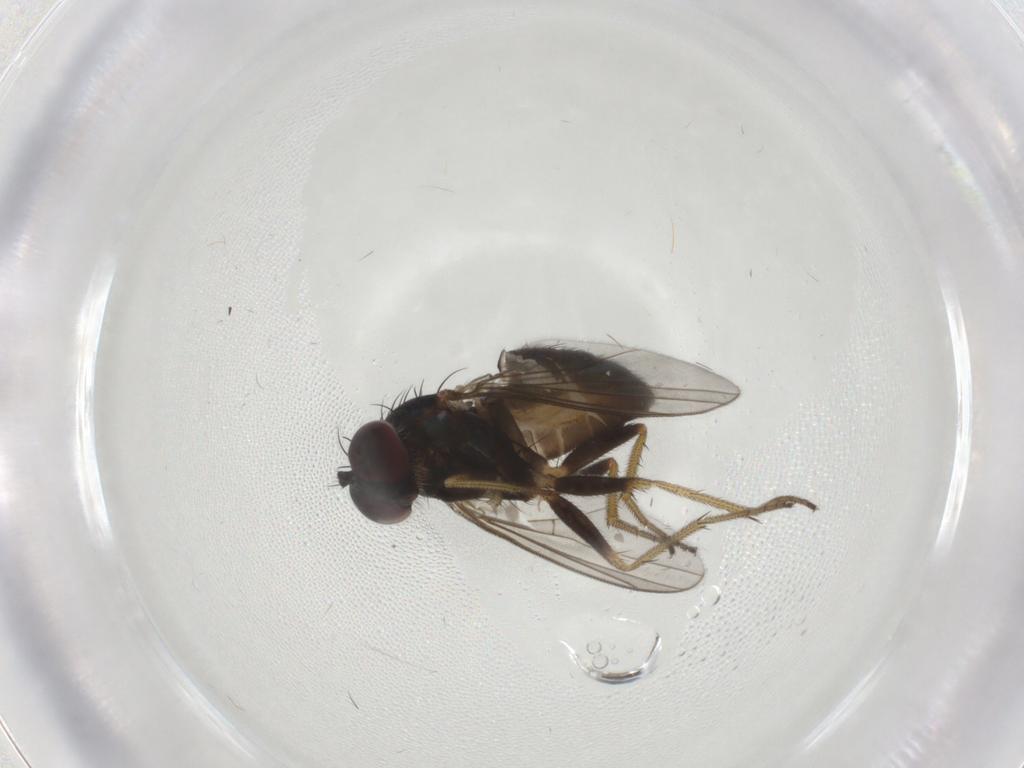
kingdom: Animalia
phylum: Arthropoda
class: Insecta
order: Diptera
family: Dolichopodidae
